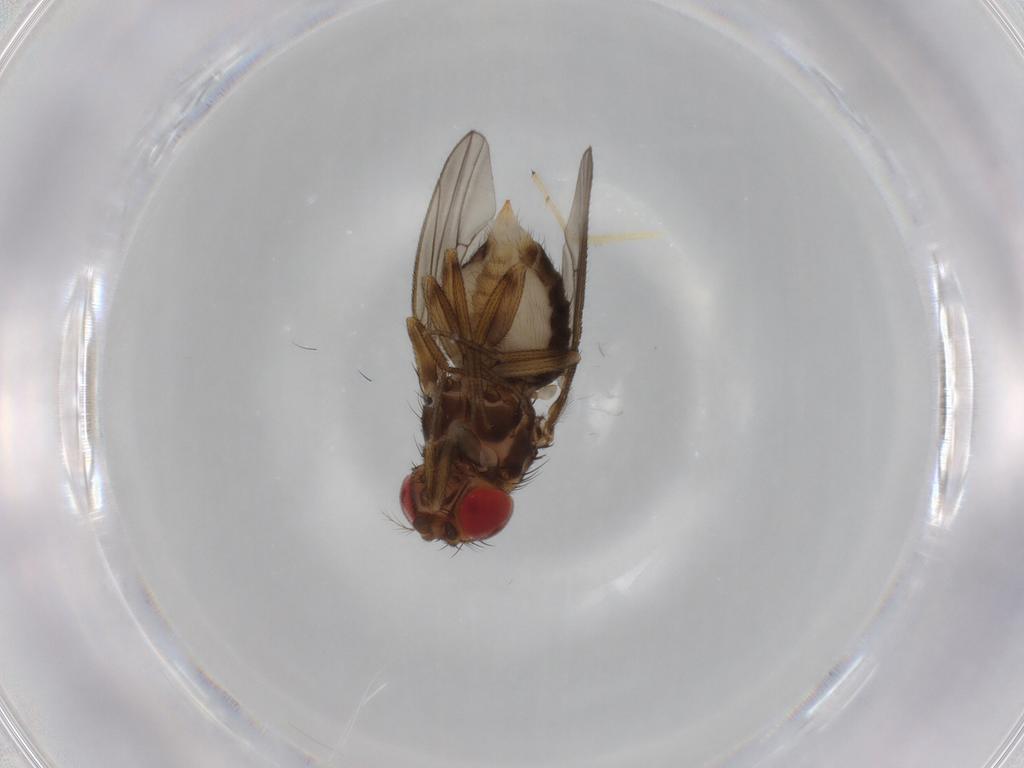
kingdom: Animalia
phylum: Arthropoda
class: Insecta
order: Diptera
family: Drosophilidae
